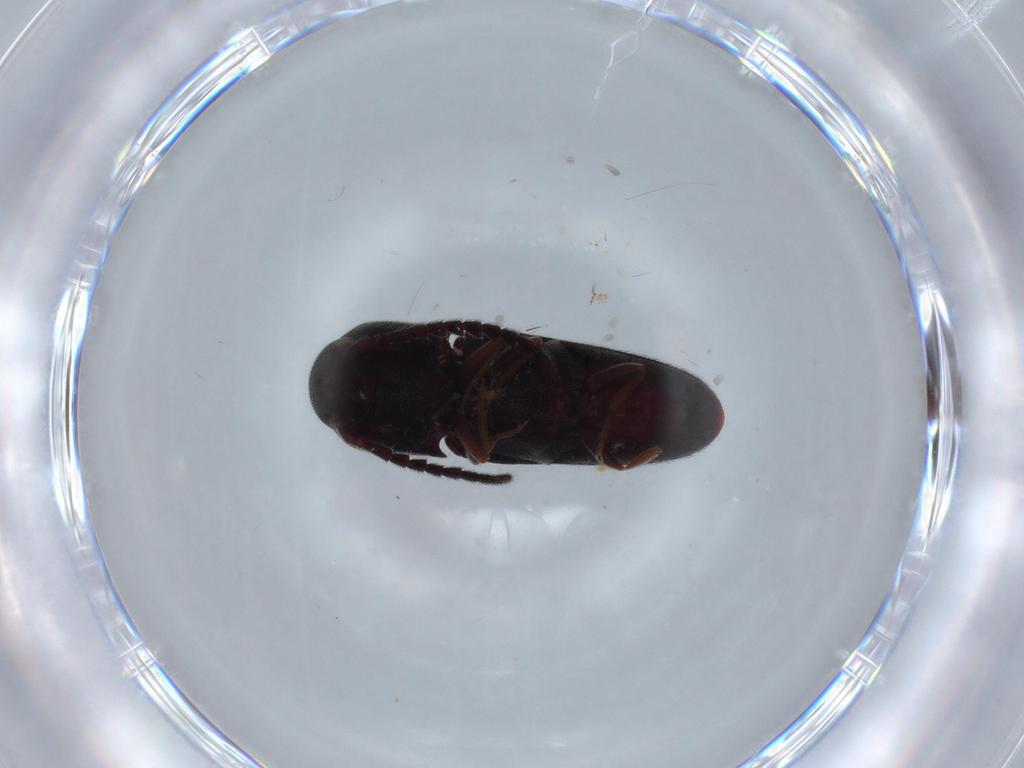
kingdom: Animalia
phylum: Arthropoda
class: Insecta
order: Coleoptera
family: Eucnemidae
